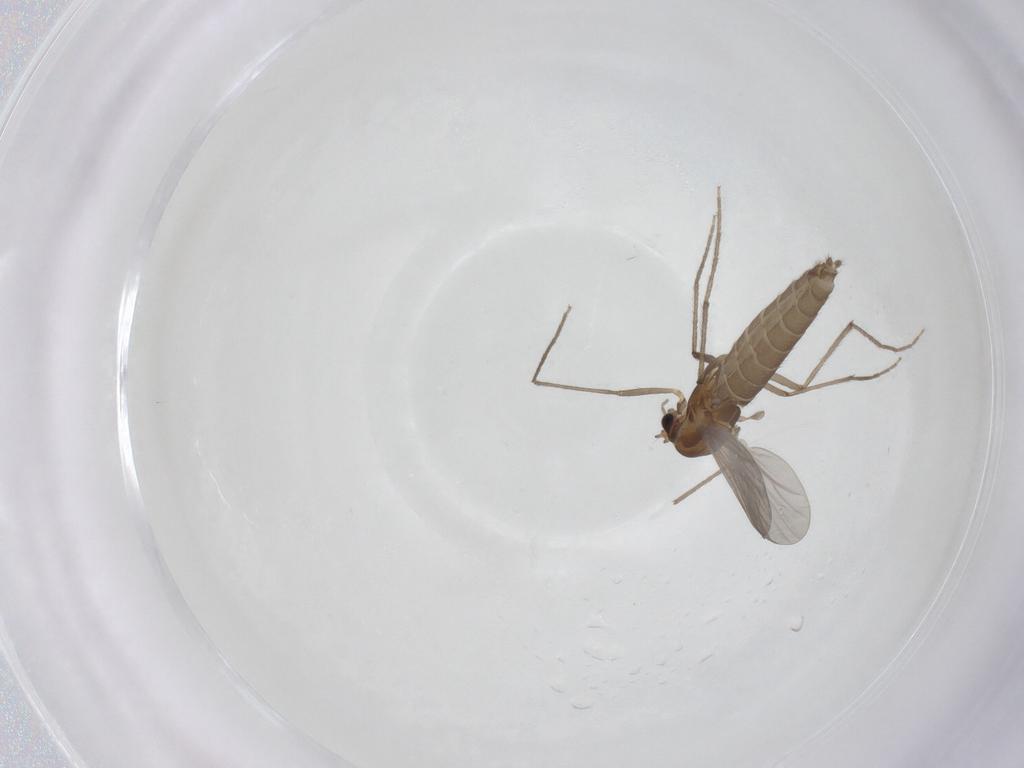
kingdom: Animalia
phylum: Arthropoda
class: Insecta
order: Diptera
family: Chironomidae
